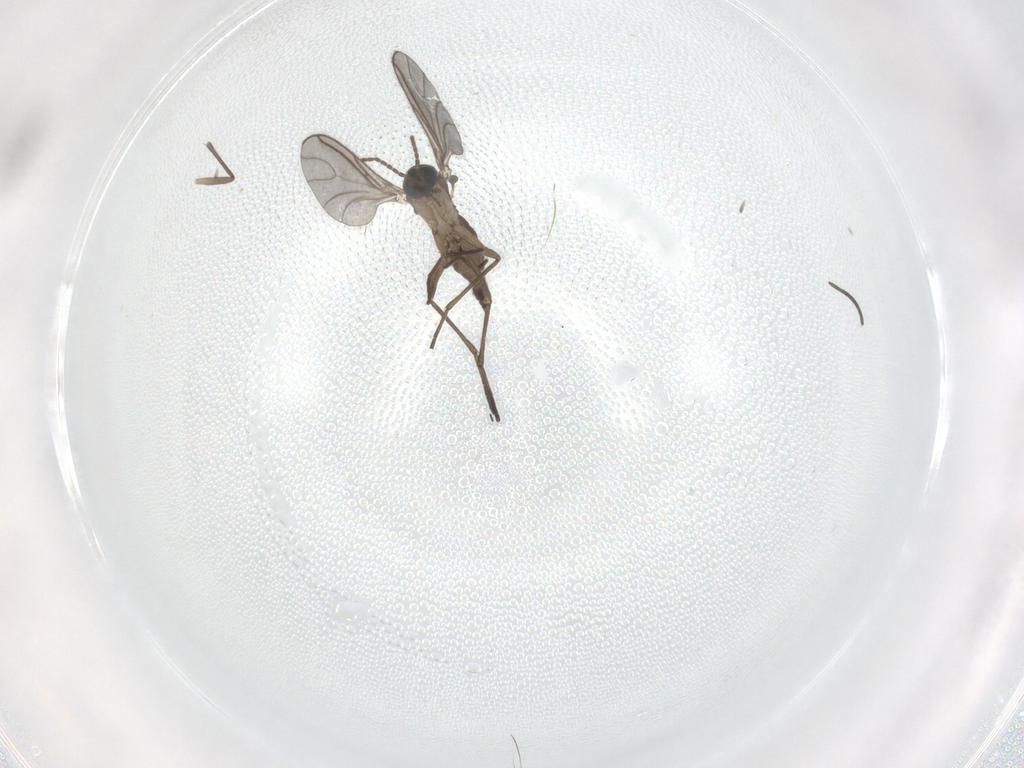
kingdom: Animalia
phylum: Arthropoda
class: Insecta
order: Diptera
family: Sciaridae
